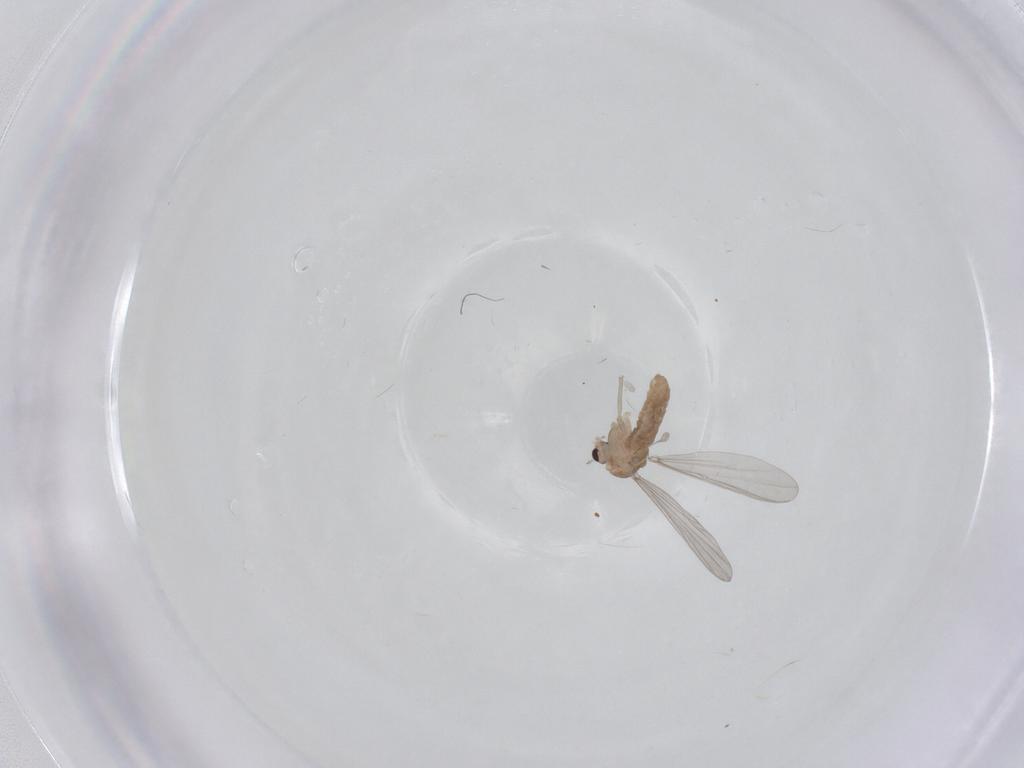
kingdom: Animalia
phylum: Arthropoda
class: Insecta
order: Diptera
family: Chironomidae
